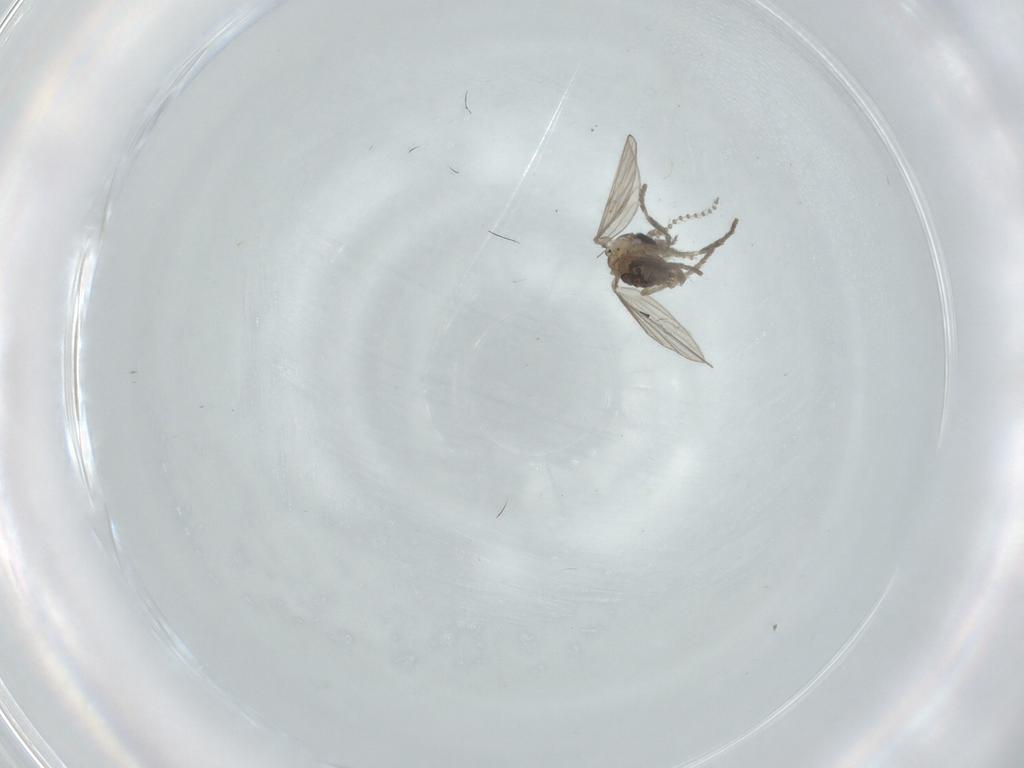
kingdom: Animalia
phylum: Arthropoda
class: Insecta
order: Diptera
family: Psychodidae
